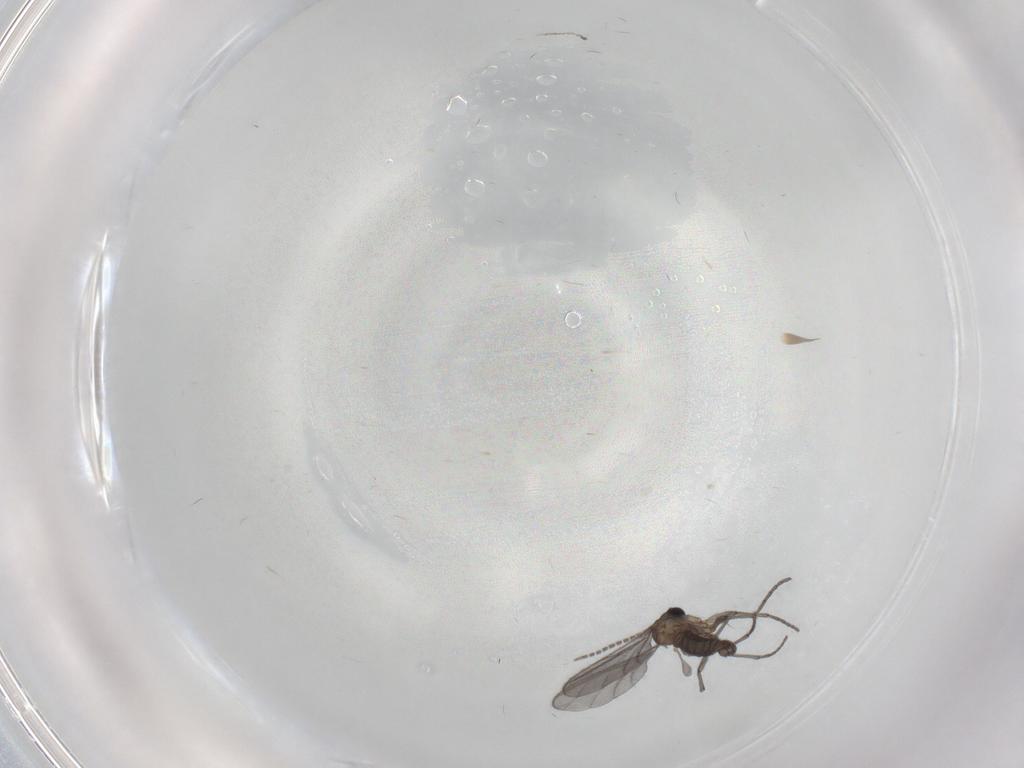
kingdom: Animalia
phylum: Arthropoda
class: Insecta
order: Diptera
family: Sciaridae
